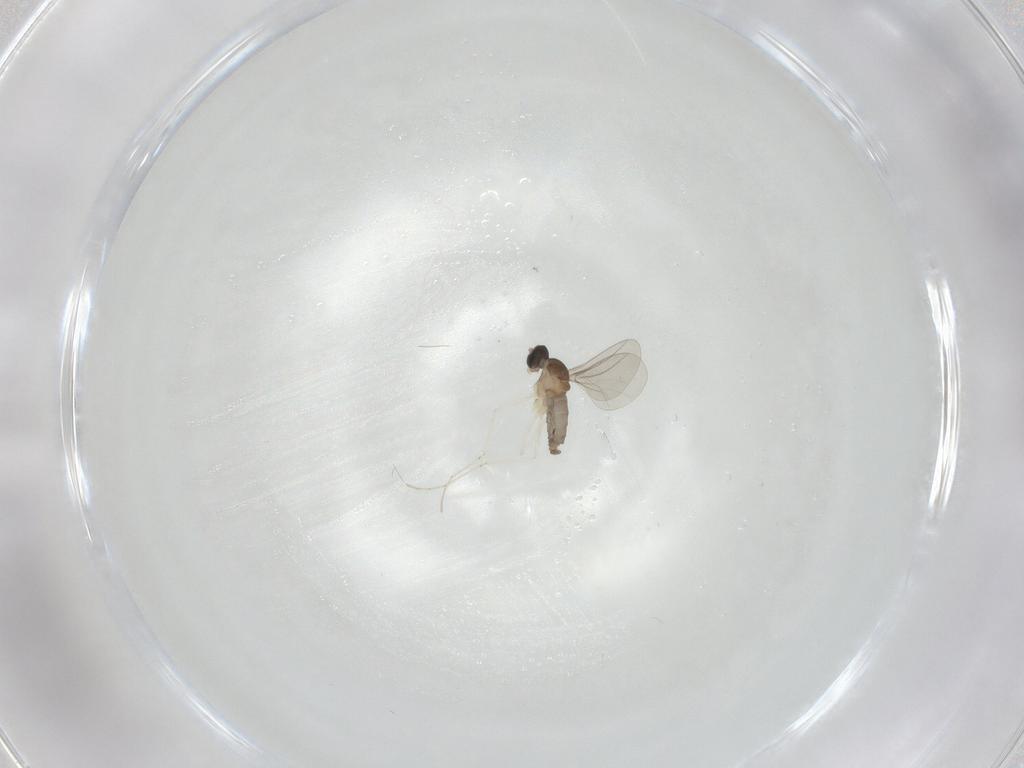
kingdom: Animalia
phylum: Arthropoda
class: Insecta
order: Diptera
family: Cecidomyiidae
